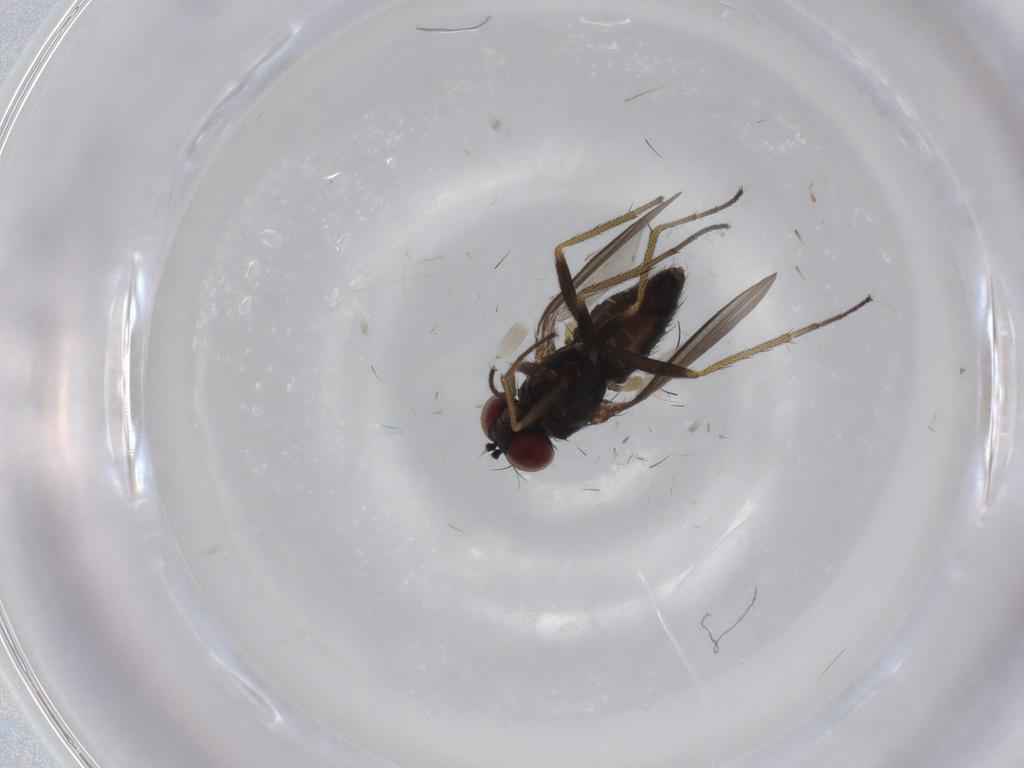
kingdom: Animalia
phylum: Arthropoda
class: Insecta
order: Diptera
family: Dolichopodidae
